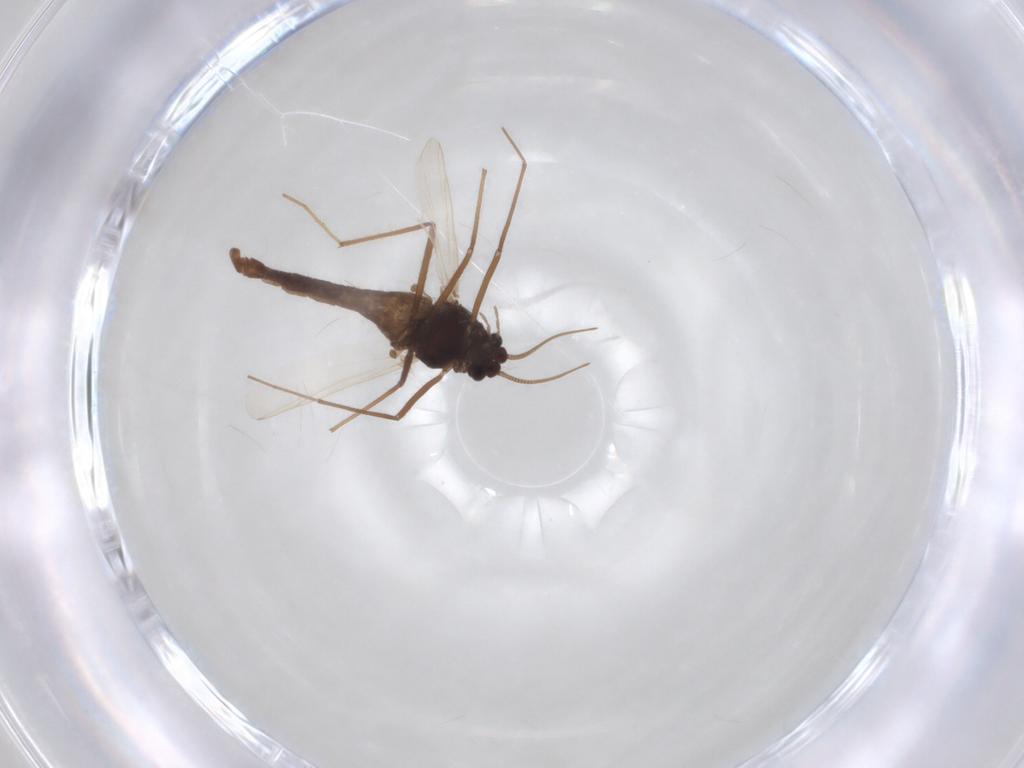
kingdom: Animalia
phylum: Arthropoda
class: Insecta
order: Diptera
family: Chironomidae
